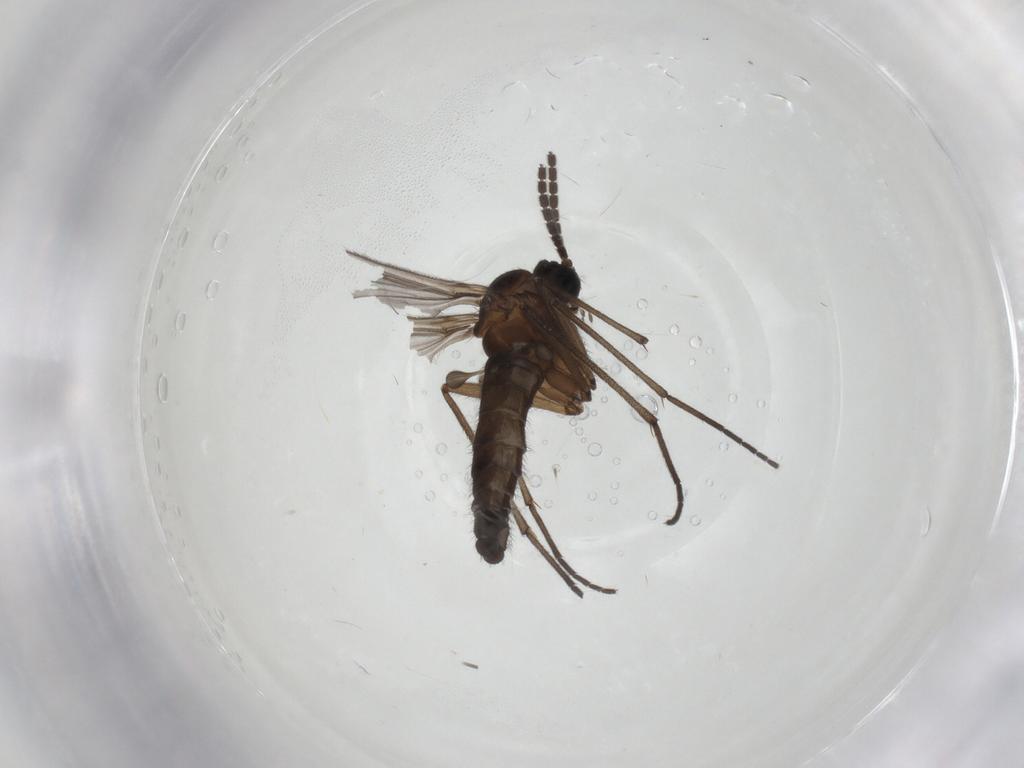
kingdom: Animalia
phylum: Arthropoda
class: Insecta
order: Diptera
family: Sciaridae
